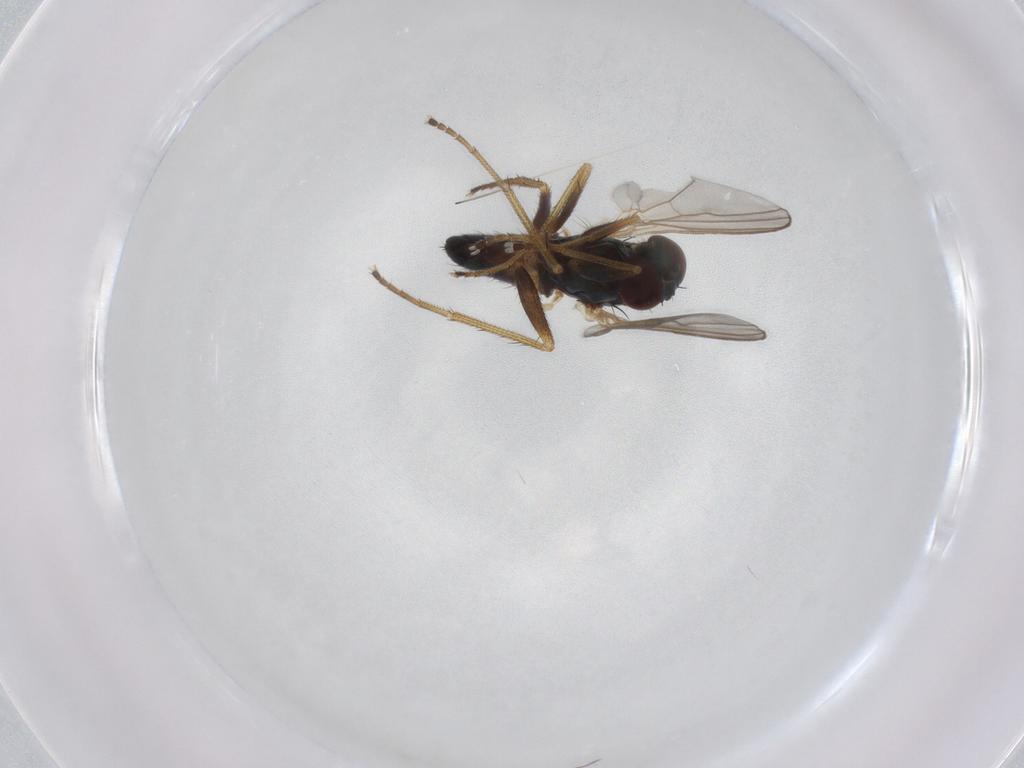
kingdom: Animalia
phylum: Arthropoda
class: Insecta
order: Diptera
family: Dolichopodidae
